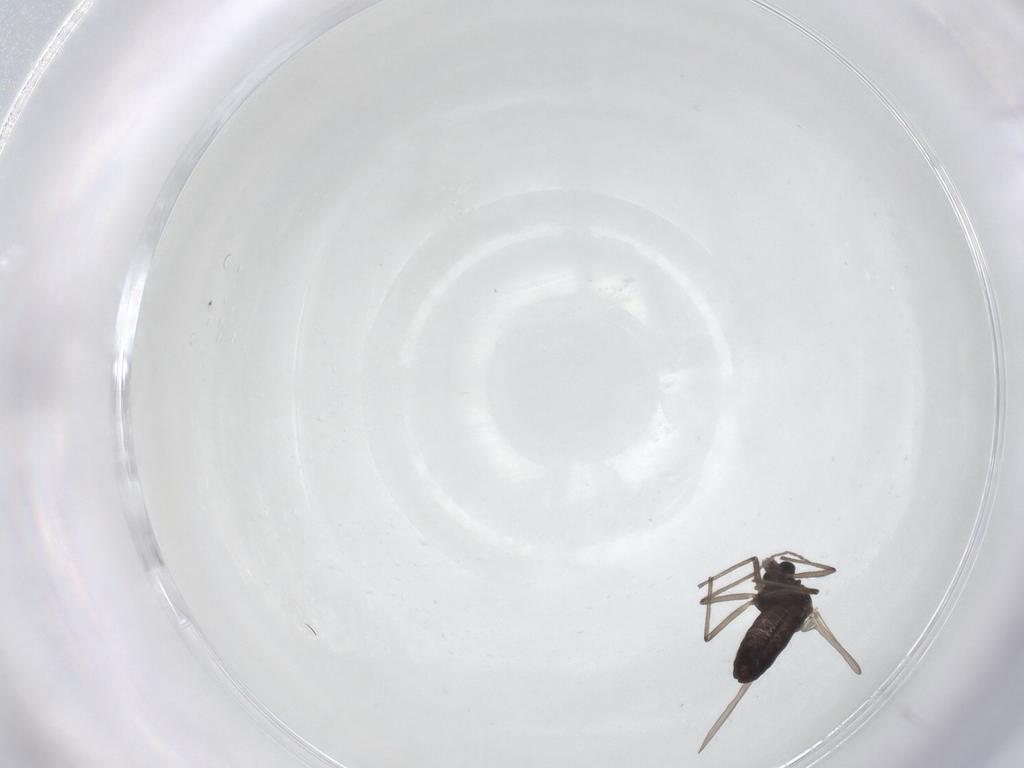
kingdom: Animalia
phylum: Arthropoda
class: Insecta
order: Diptera
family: Chironomidae
